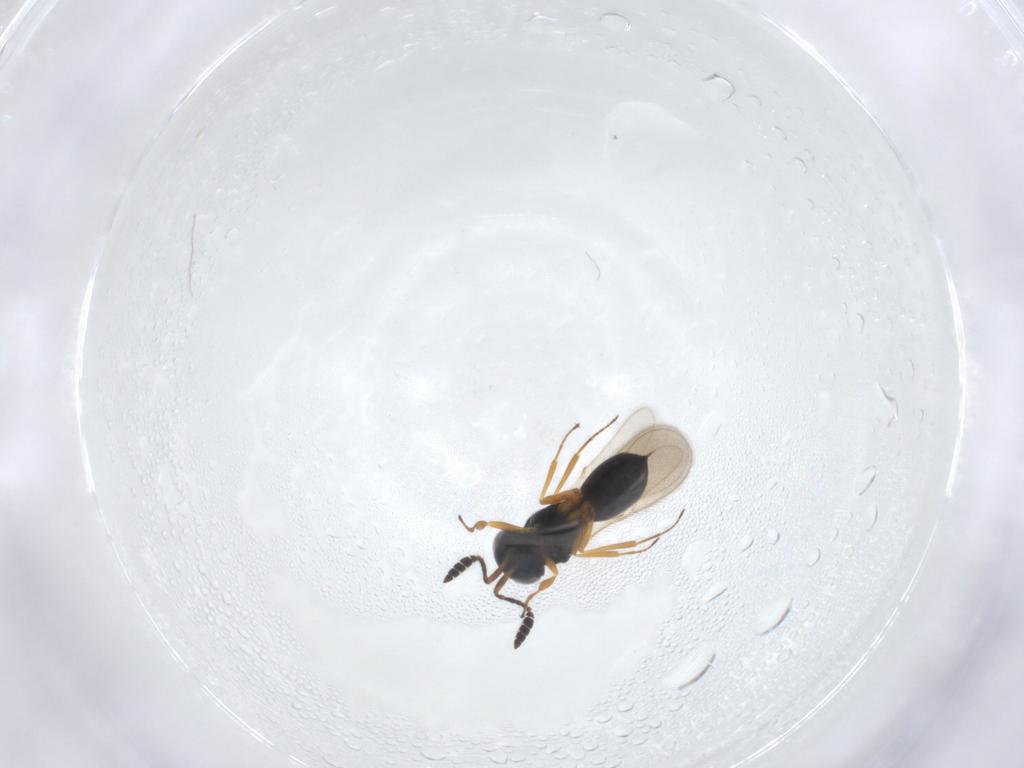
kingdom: Animalia
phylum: Arthropoda
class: Insecta
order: Hymenoptera
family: Scelionidae
